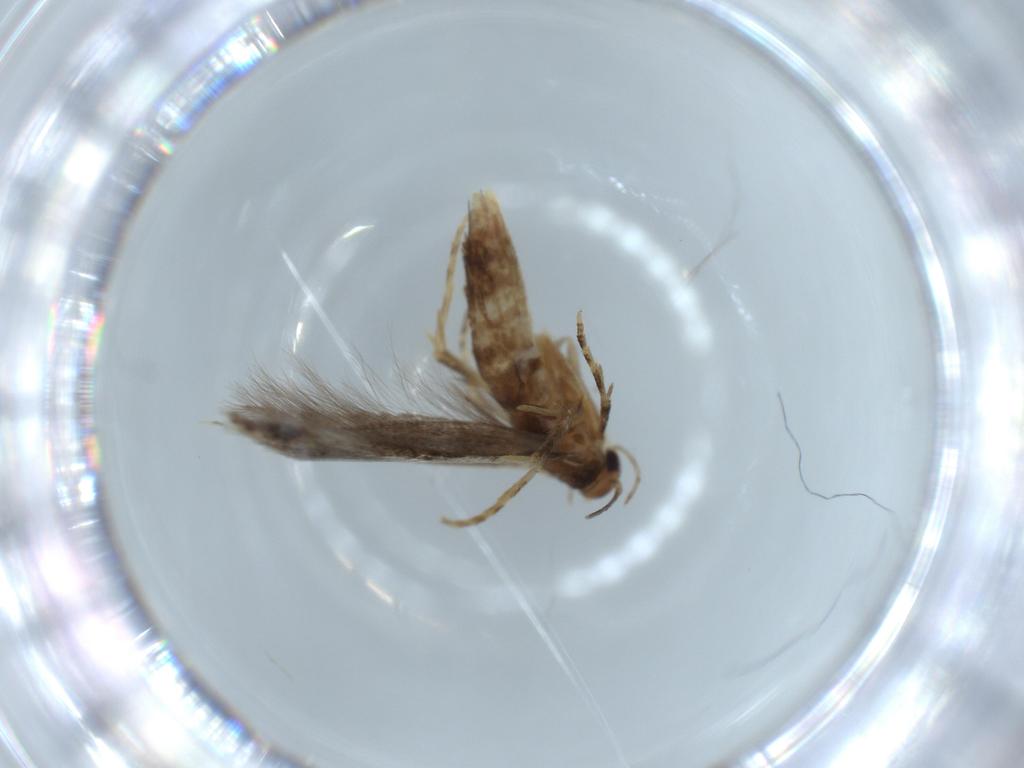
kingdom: Animalia
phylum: Arthropoda
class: Insecta
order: Lepidoptera
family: Elachistidae
